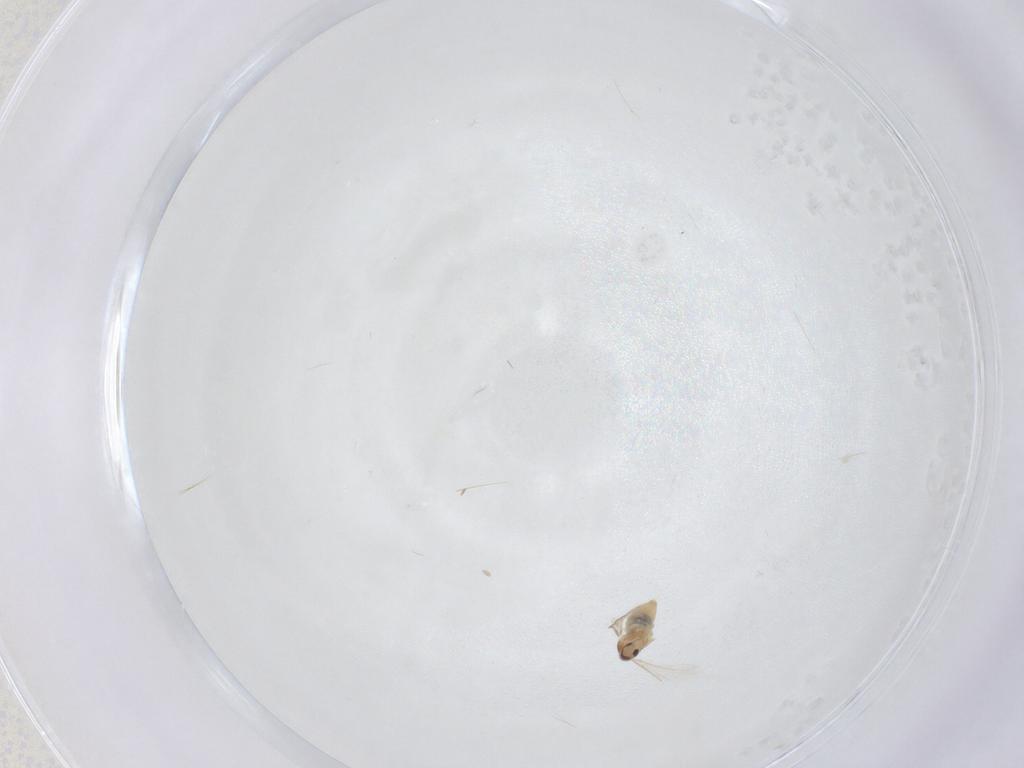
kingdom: Animalia
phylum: Arthropoda
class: Insecta
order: Diptera
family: Cecidomyiidae
